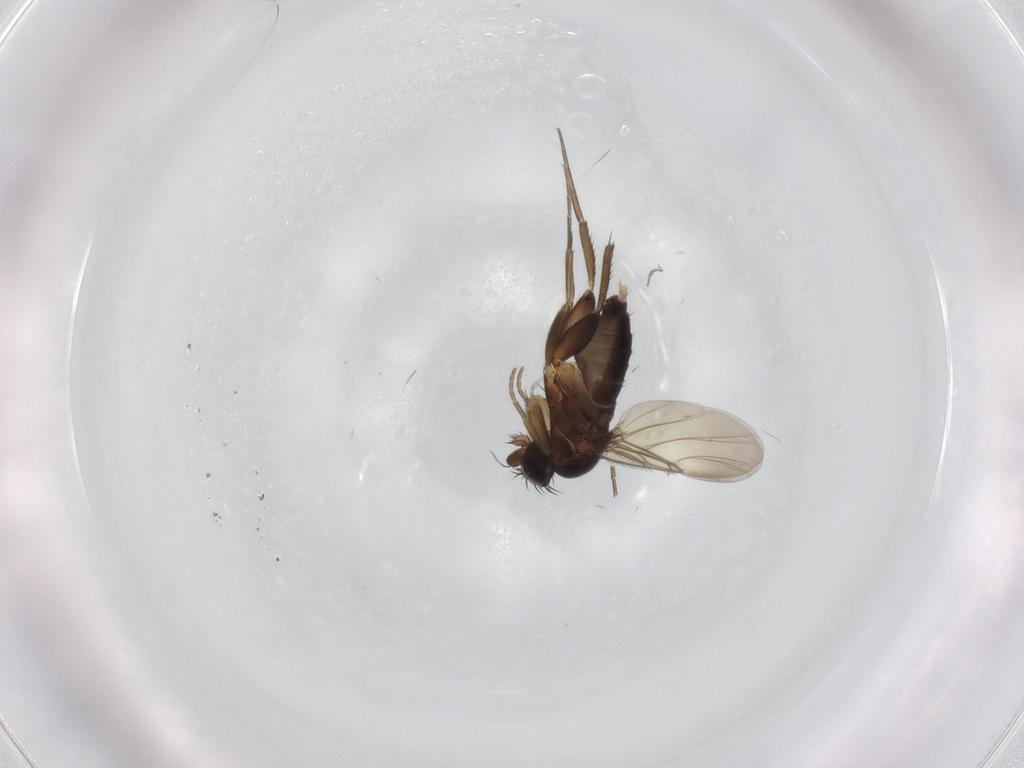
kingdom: Animalia
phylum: Arthropoda
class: Insecta
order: Diptera
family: Phoridae
